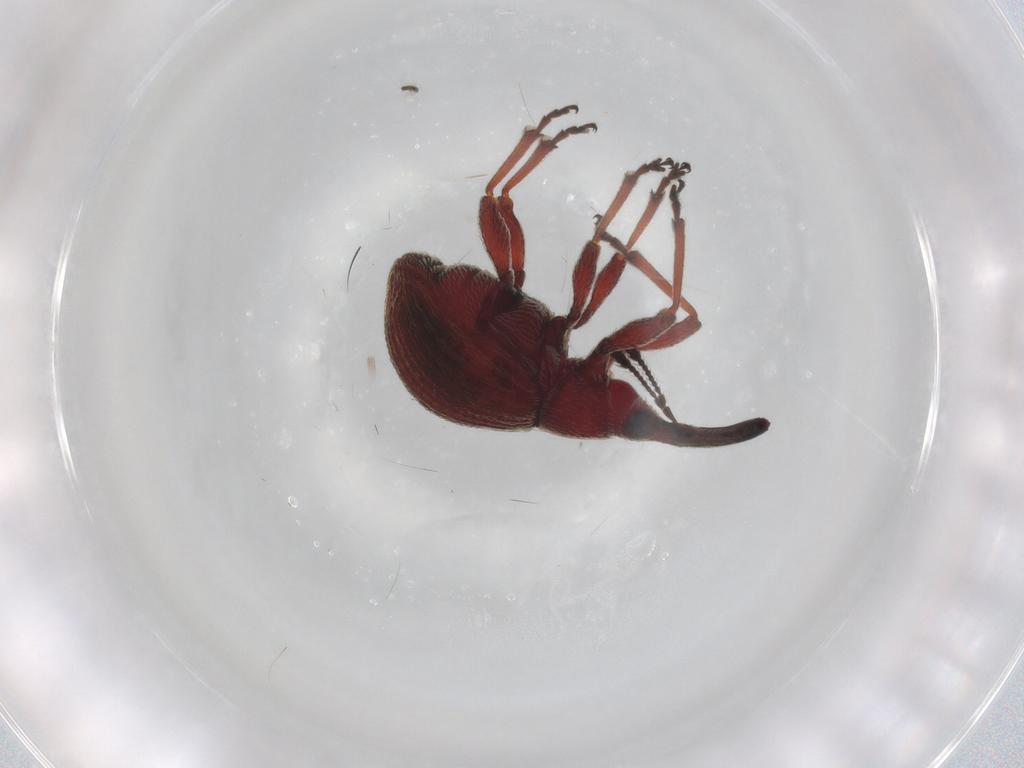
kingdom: Animalia
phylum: Arthropoda
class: Insecta
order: Coleoptera
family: Brentidae
